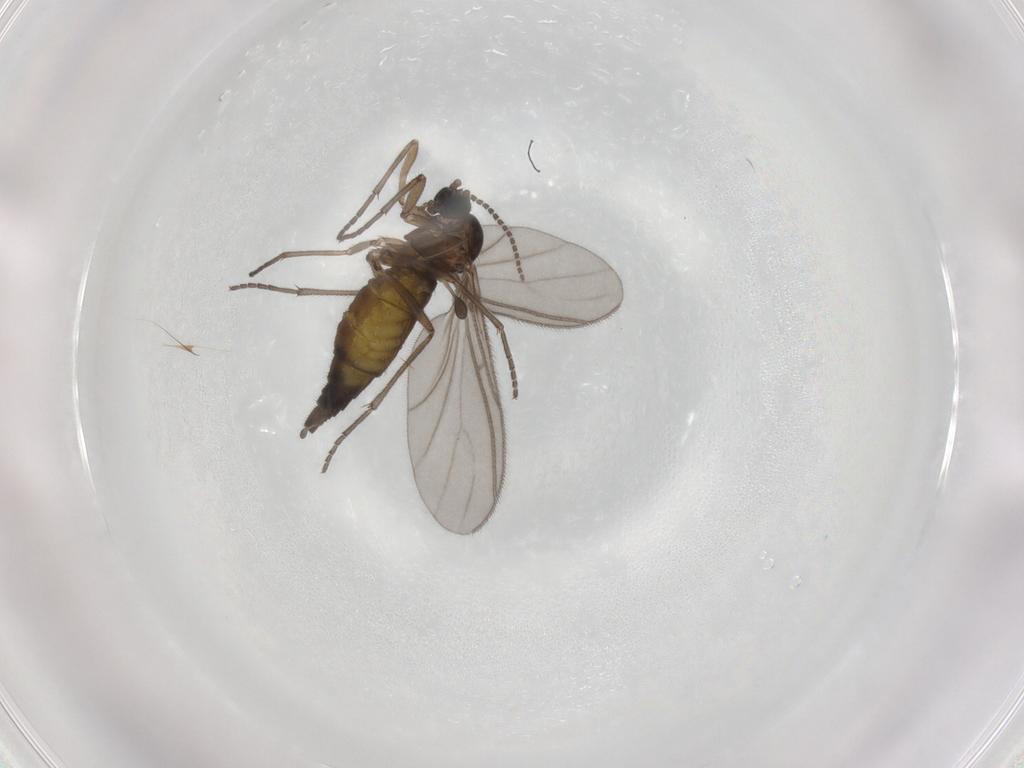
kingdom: Animalia
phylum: Arthropoda
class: Insecta
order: Diptera
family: Sciaridae
